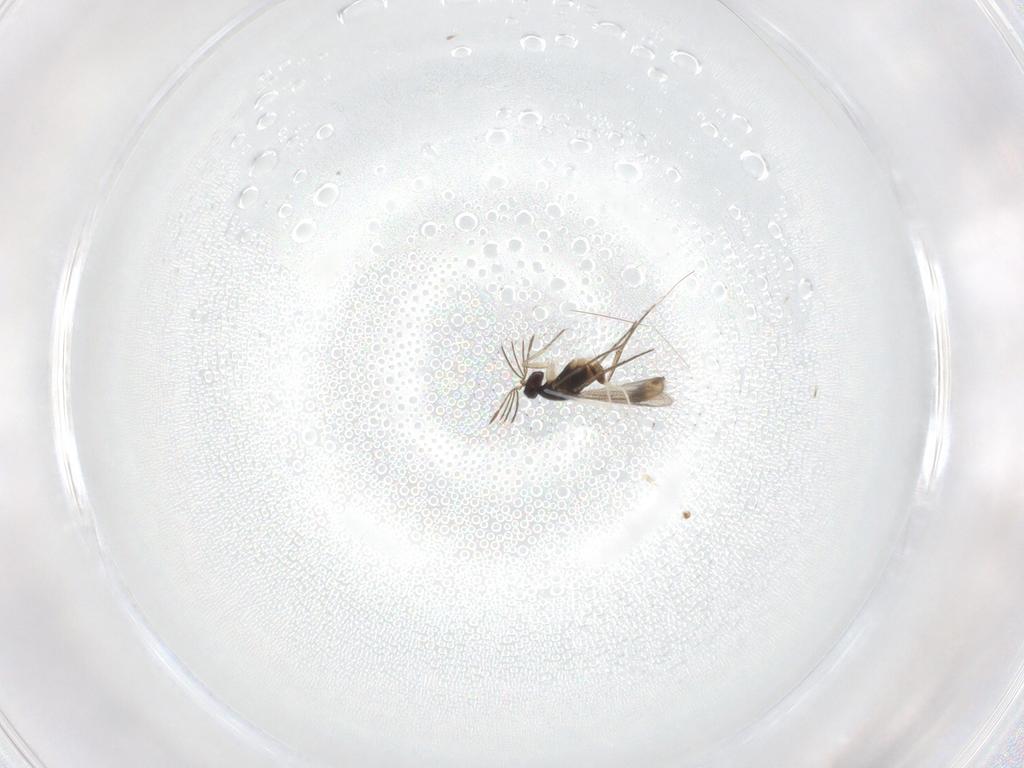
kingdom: Animalia
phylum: Arthropoda
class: Insecta
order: Hymenoptera
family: Eulophidae
